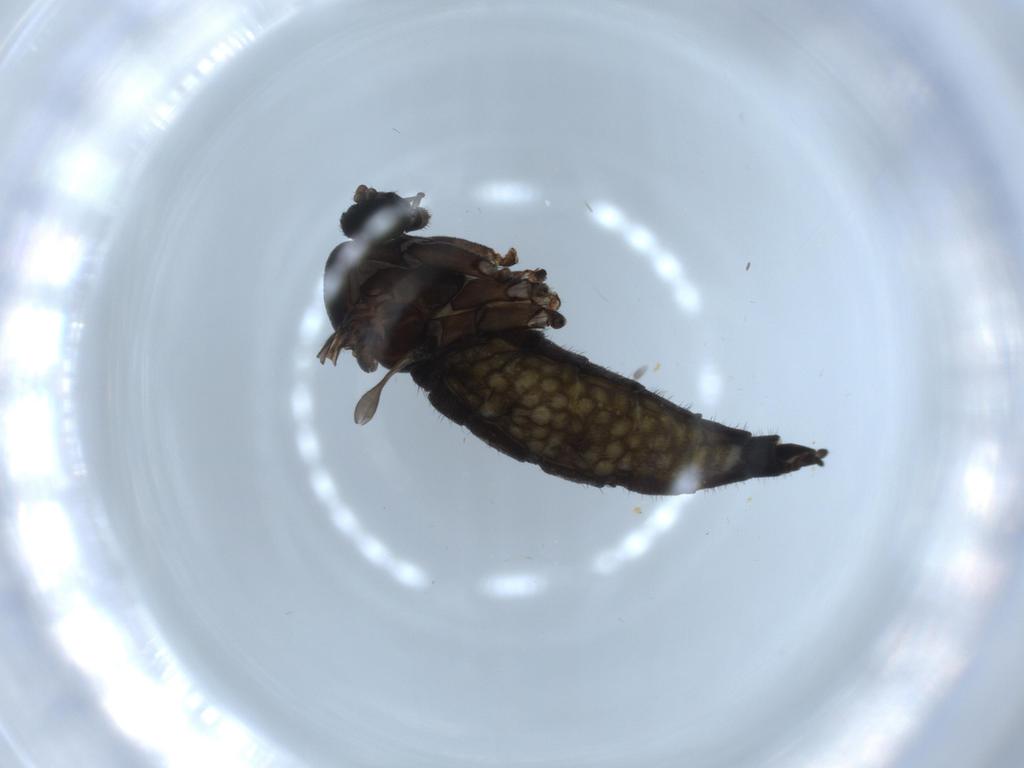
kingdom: Animalia
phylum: Arthropoda
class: Insecta
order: Diptera
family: Sciaridae
